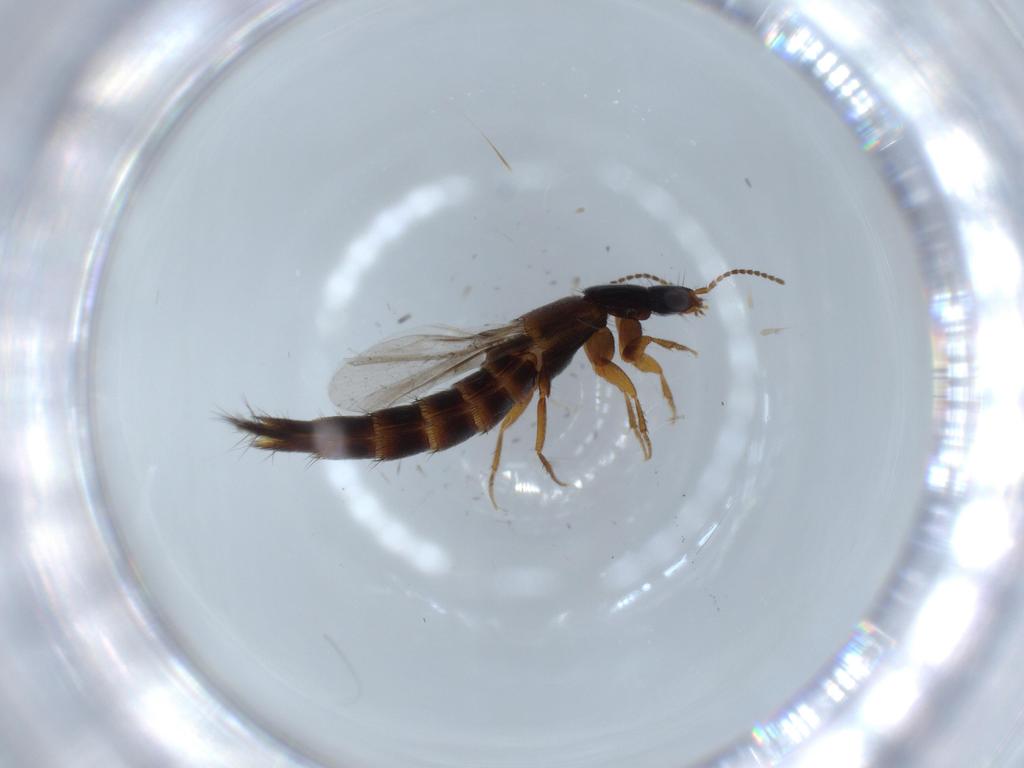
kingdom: Animalia
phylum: Arthropoda
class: Insecta
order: Coleoptera
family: Staphylinidae
